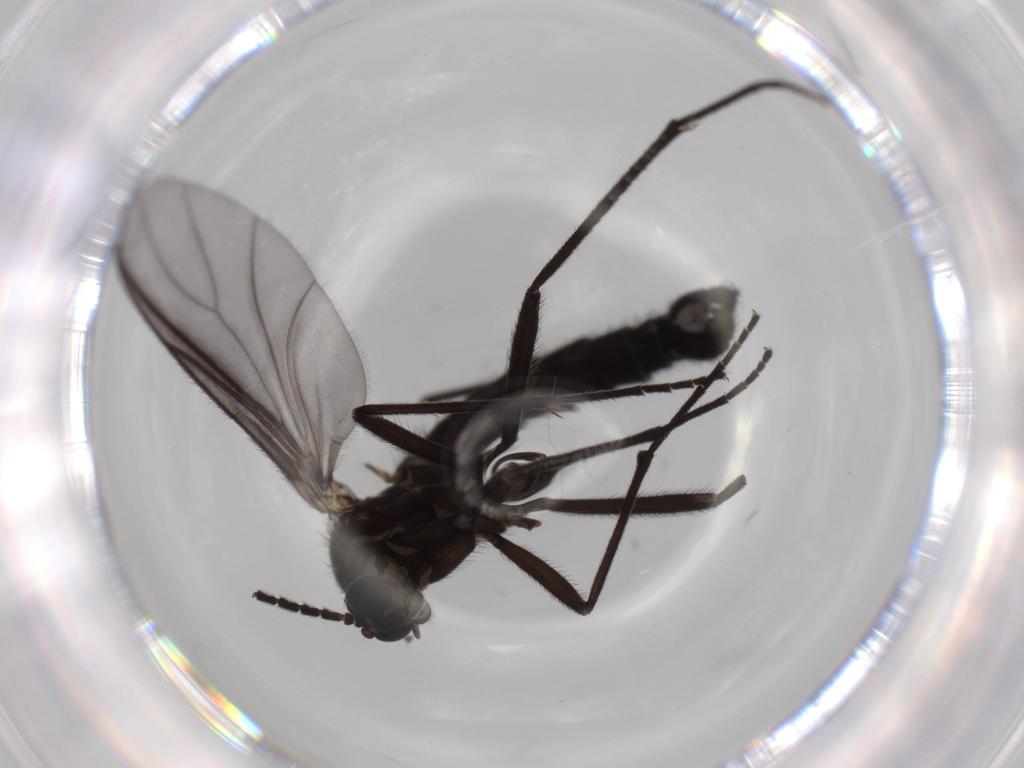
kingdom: Animalia
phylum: Arthropoda
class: Insecta
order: Diptera
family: Sciaridae
